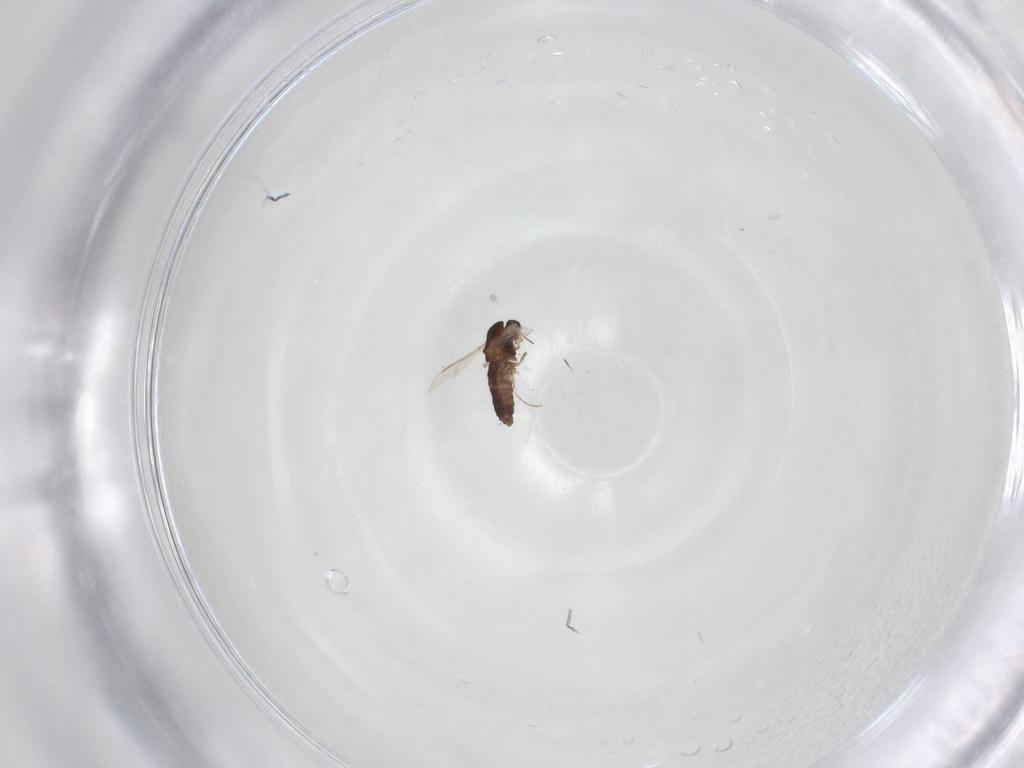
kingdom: Animalia
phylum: Arthropoda
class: Insecta
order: Diptera
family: Chironomidae
